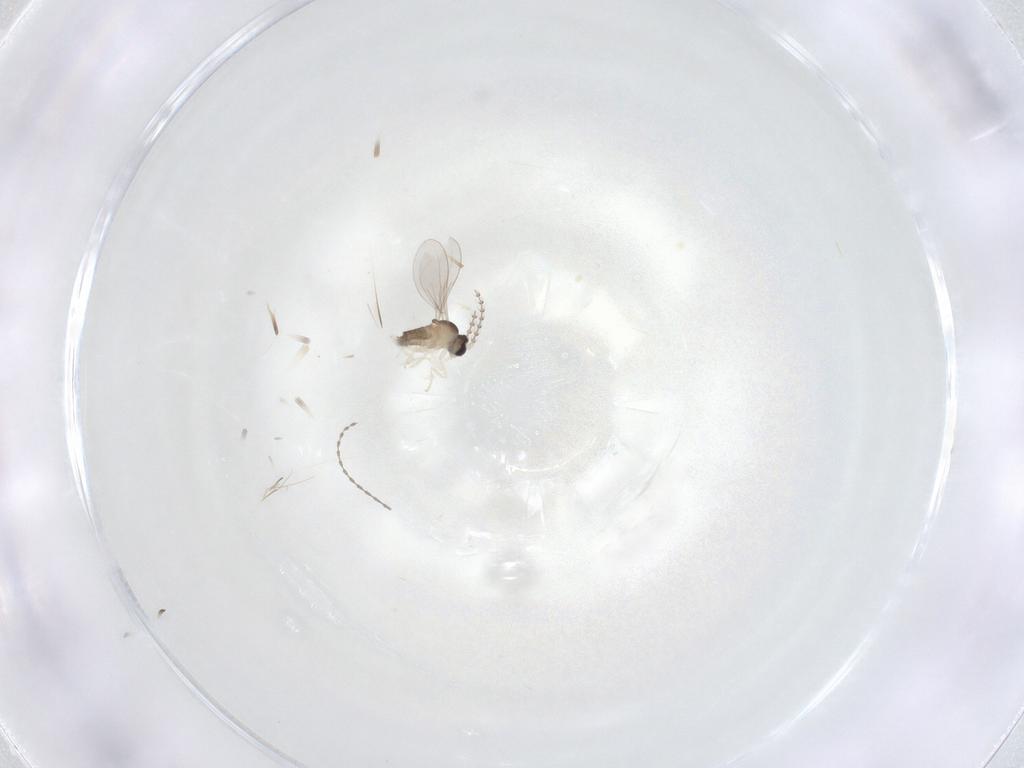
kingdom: Animalia
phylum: Arthropoda
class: Insecta
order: Diptera
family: Cecidomyiidae
